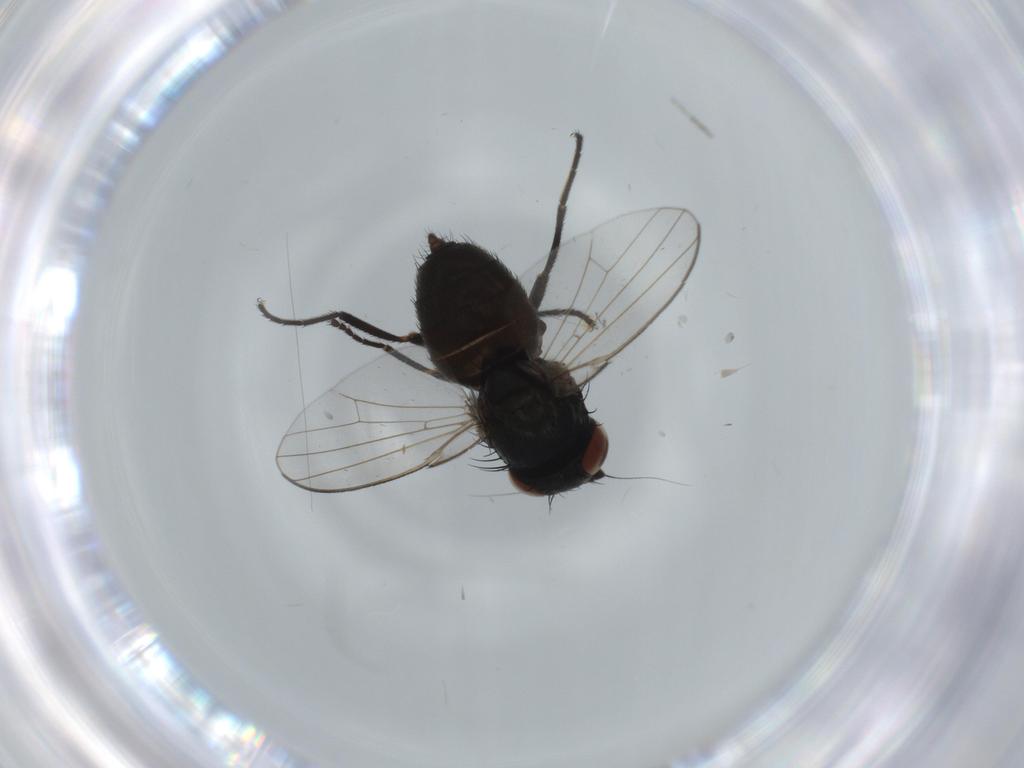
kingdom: Animalia
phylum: Arthropoda
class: Insecta
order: Diptera
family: Milichiidae
